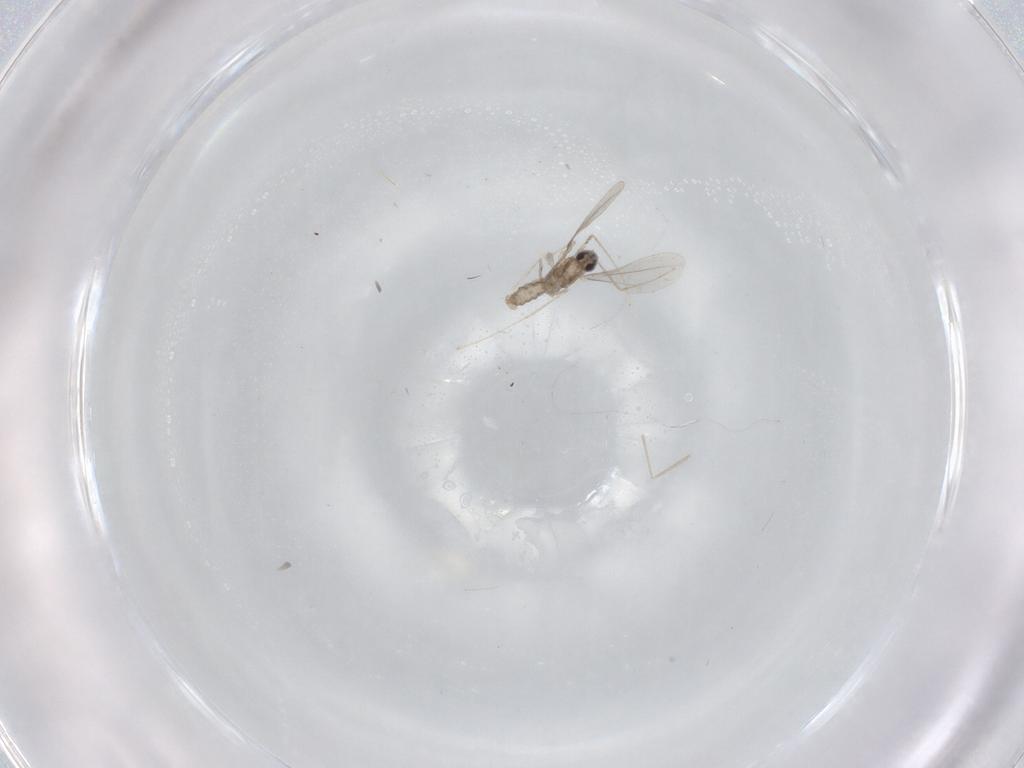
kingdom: Animalia
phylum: Arthropoda
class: Insecta
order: Diptera
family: Cecidomyiidae
